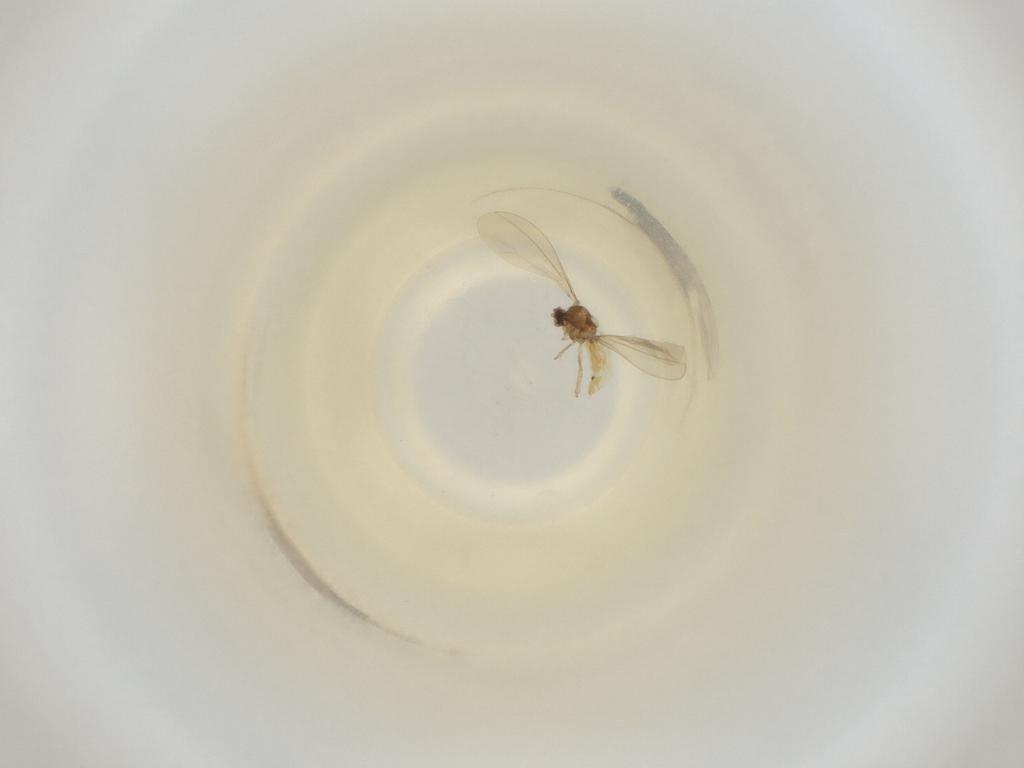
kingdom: Animalia
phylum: Arthropoda
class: Insecta
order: Diptera
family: Cecidomyiidae
